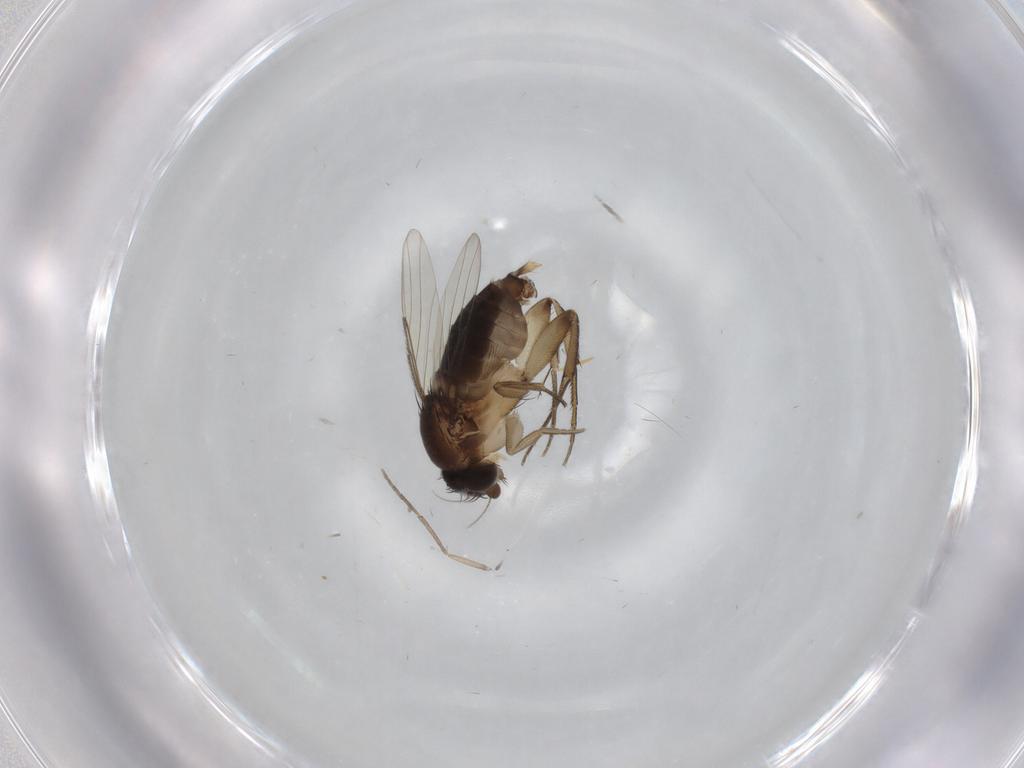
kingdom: Animalia
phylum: Arthropoda
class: Insecta
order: Diptera
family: Phoridae
